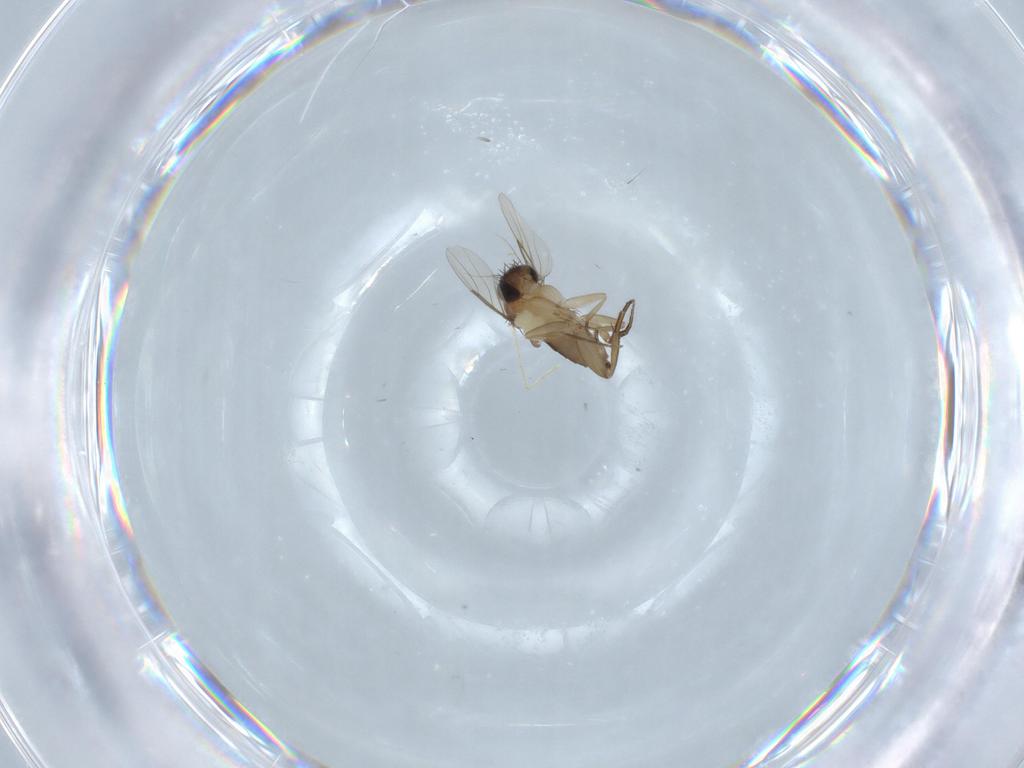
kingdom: Animalia
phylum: Arthropoda
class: Insecta
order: Diptera
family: Phoridae
